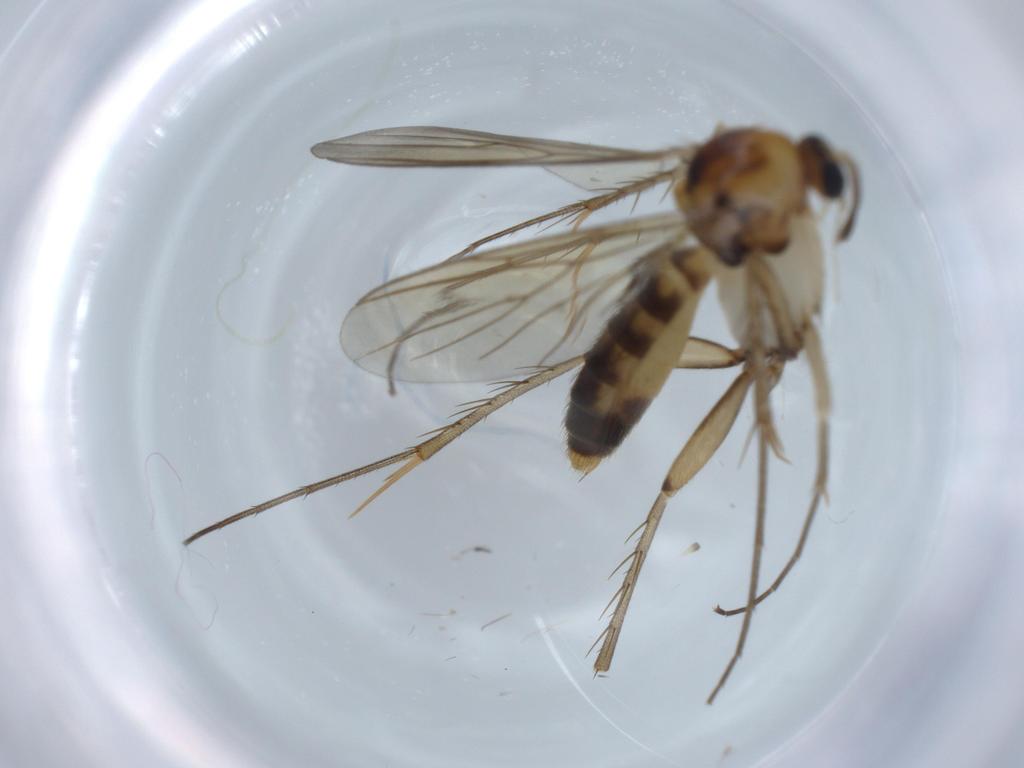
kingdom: Animalia
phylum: Arthropoda
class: Insecta
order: Diptera
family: Mycetophilidae
